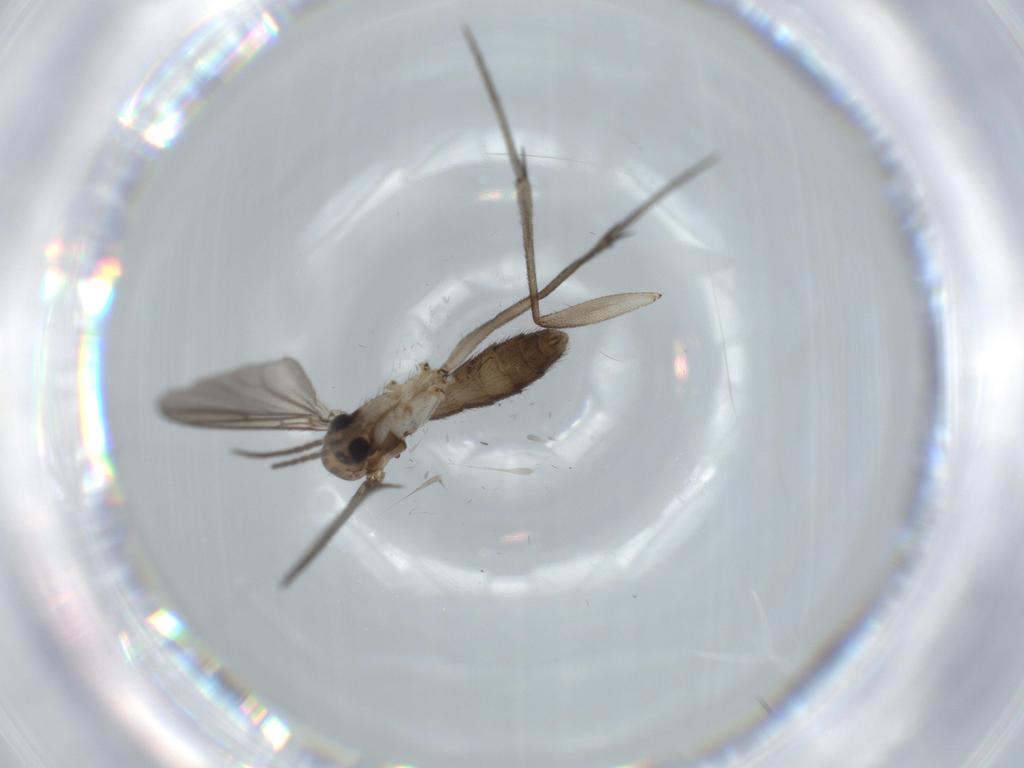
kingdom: Animalia
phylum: Arthropoda
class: Insecta
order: Diptera
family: Mycetophilidae
